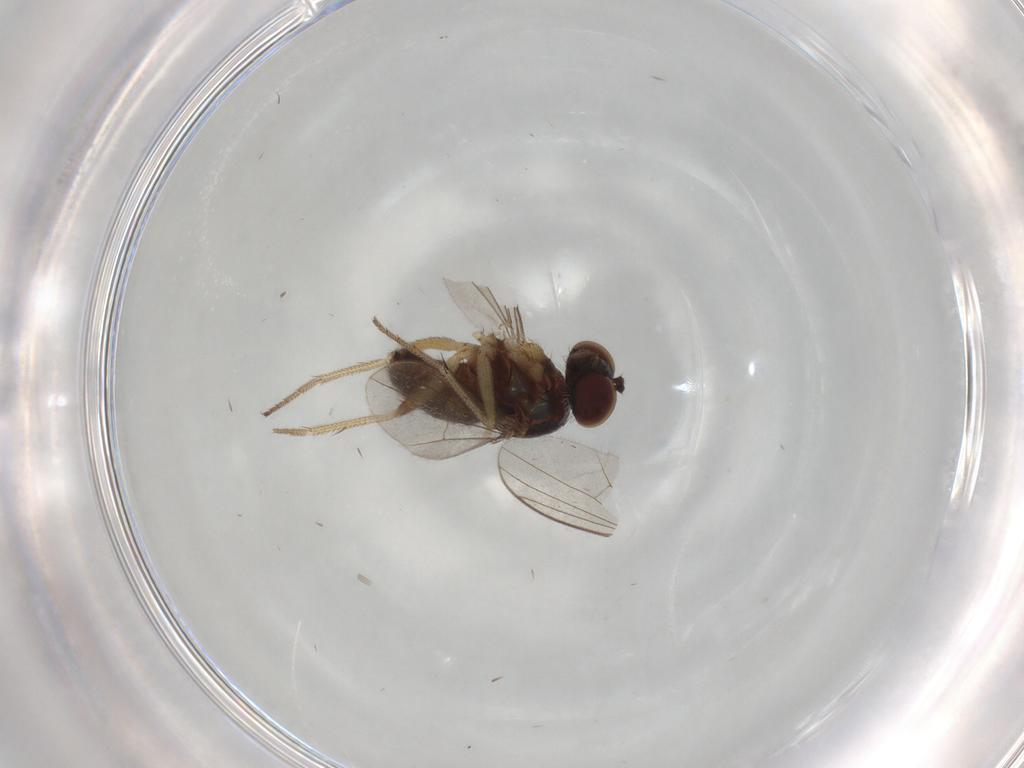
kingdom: Animalia
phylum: Arthropoda
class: Insecta
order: Diptera
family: Dolichopodidae
